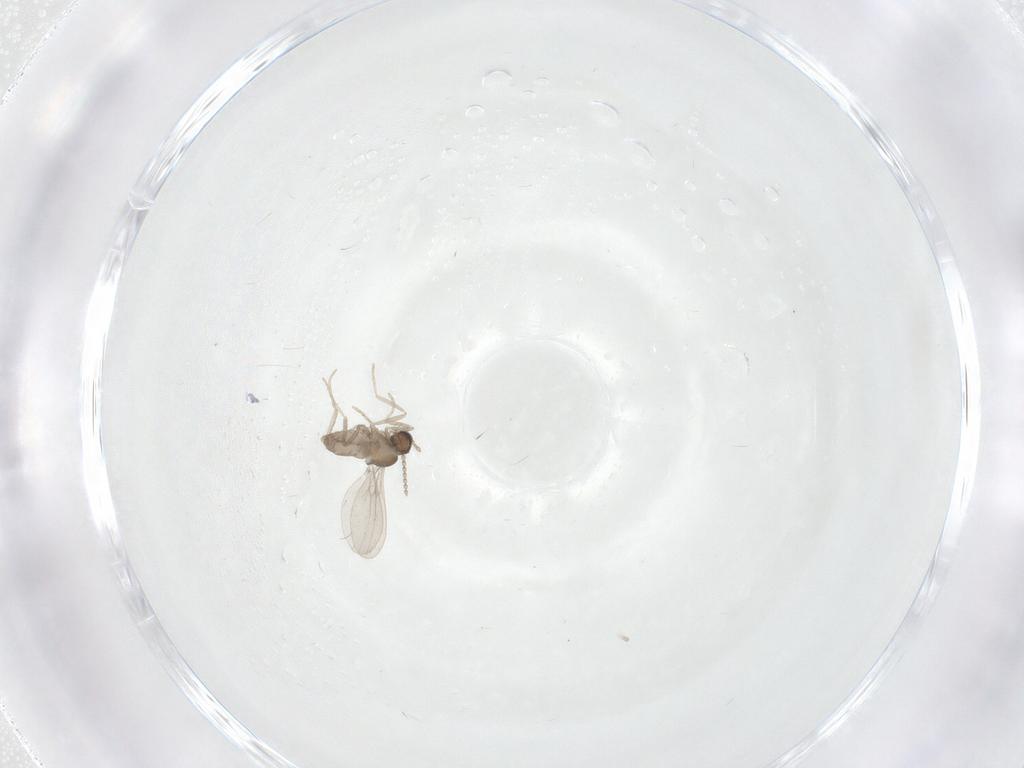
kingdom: Animalia
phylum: Arthropoda
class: Insecta
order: Diptera
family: Cecidomyiidae
